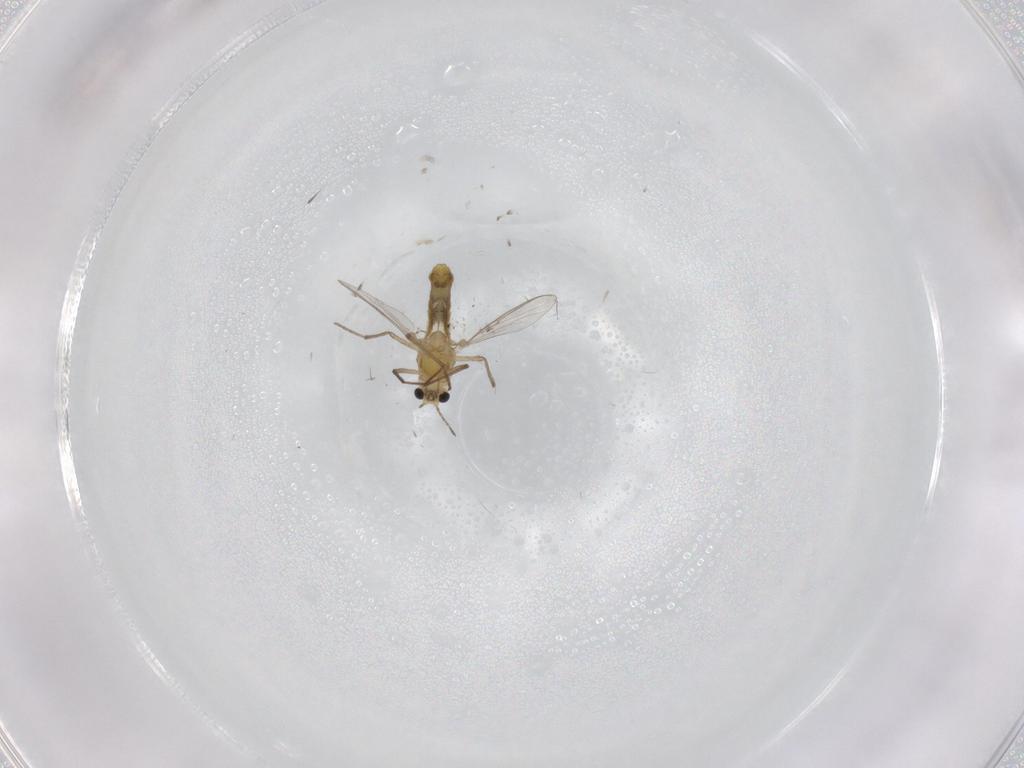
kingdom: Animalia
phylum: Arthropoda
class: Insecta
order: Diptera
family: Chironomidae
